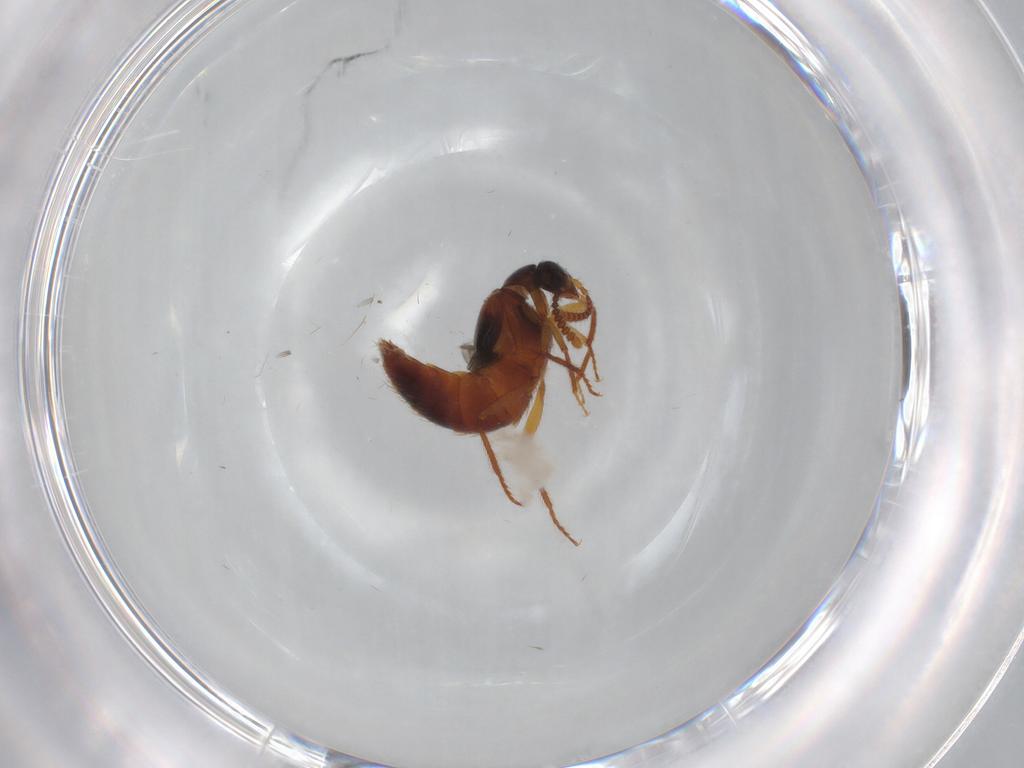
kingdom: Animalia
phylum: Arthropoda
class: Insecta
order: Coleoptera
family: Staphylinidae
